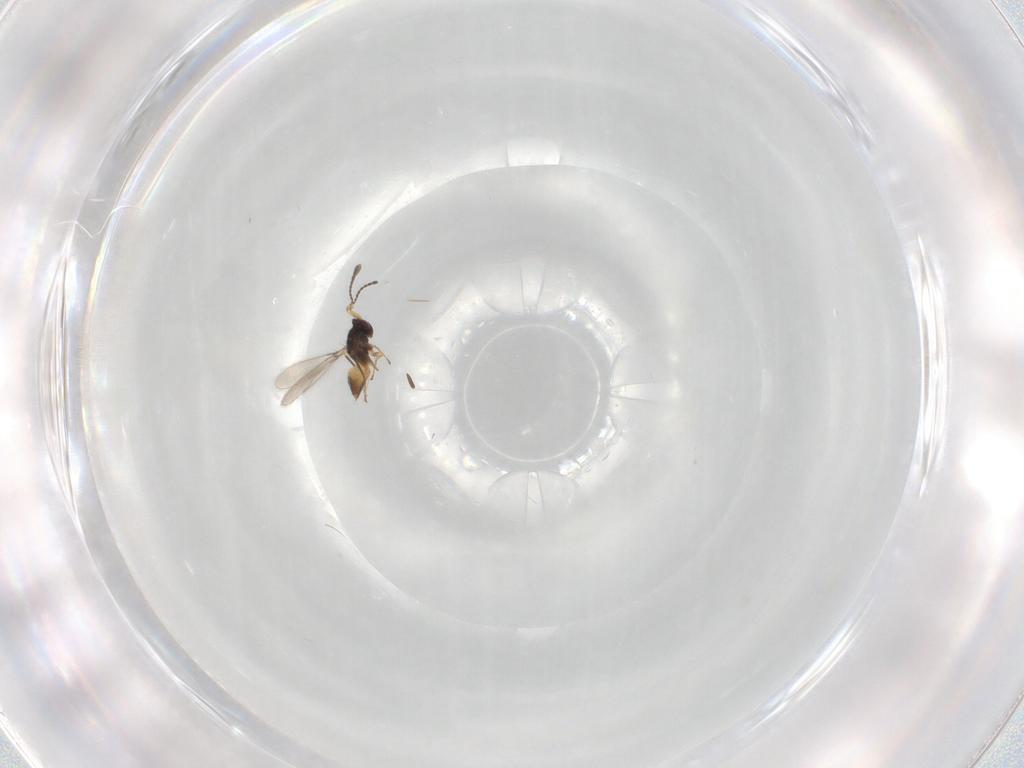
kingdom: Animalia
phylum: Arthropoda
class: Insecta
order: Hymenoptera
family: Mymaridae
